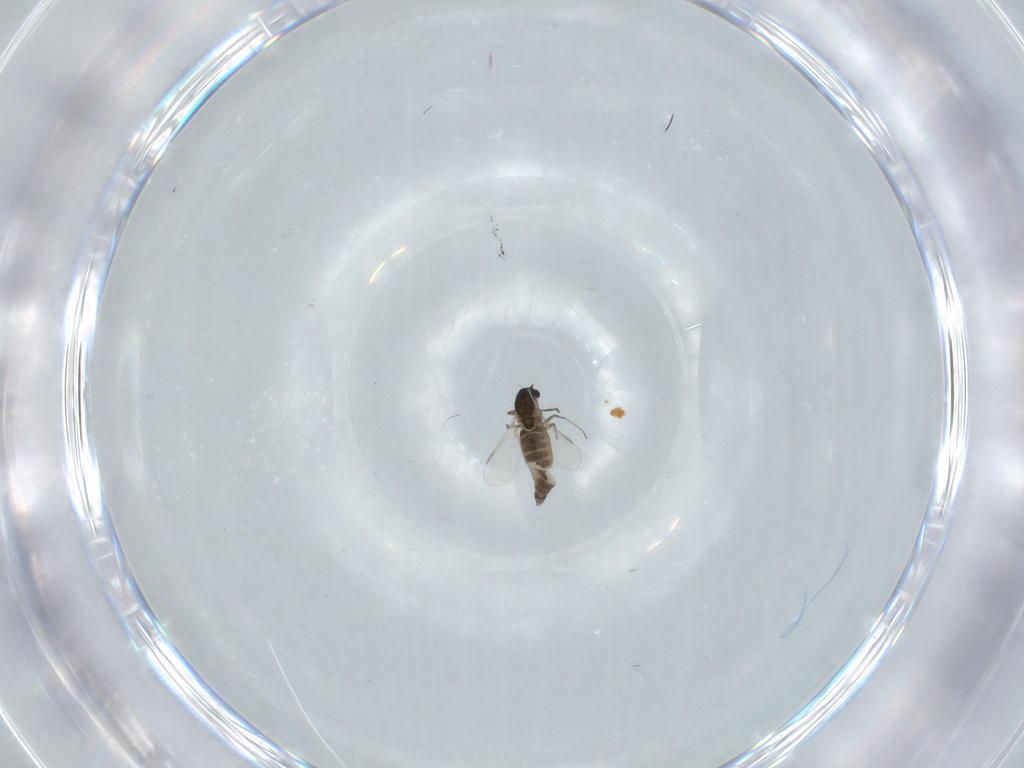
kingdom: Animalia
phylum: Arthropoda
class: Insecta
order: Diptera
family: Chironomidae
